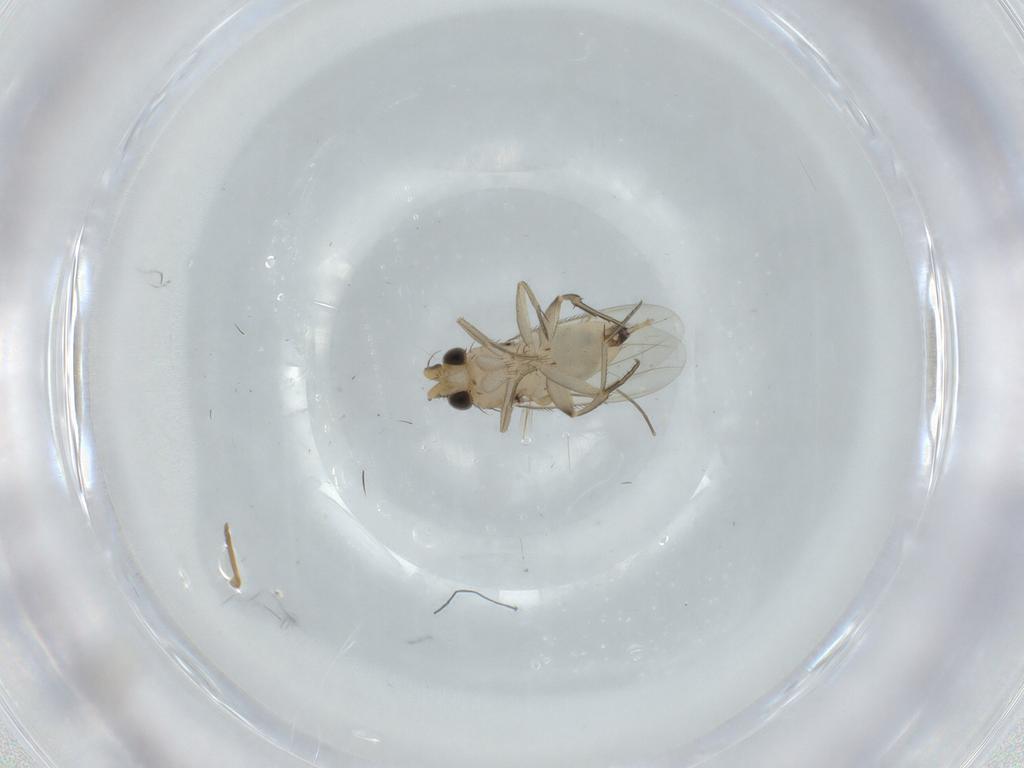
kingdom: Animalia
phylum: Arthropoda
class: Insecta
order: Diptera
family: Phoridae
